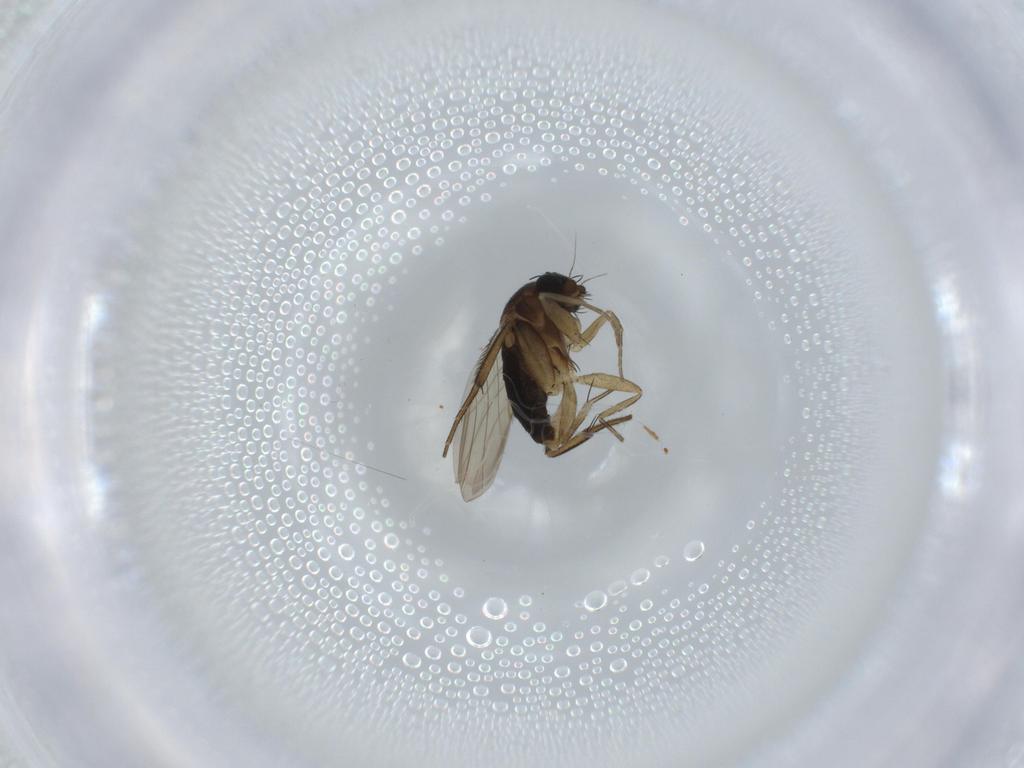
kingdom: Animalia
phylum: Arthropoda
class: Insecta
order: Diptera
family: Phoridae
